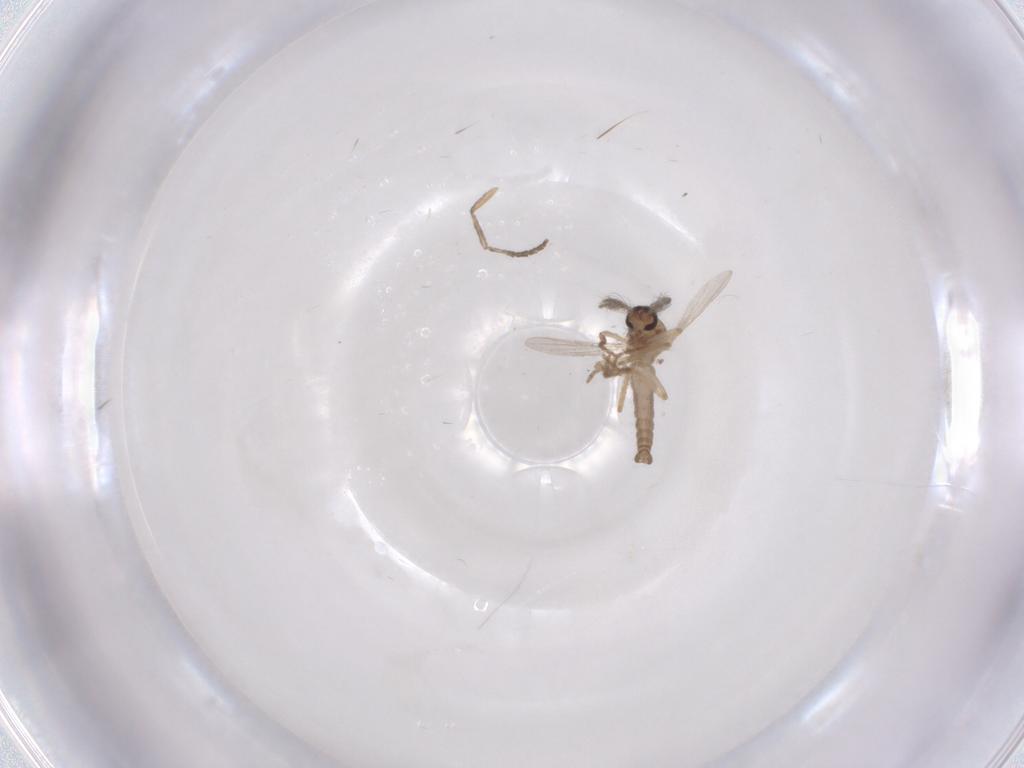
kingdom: Animalia
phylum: Arthropoda
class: Insecta
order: Diptera
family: Ceratopogonidae
